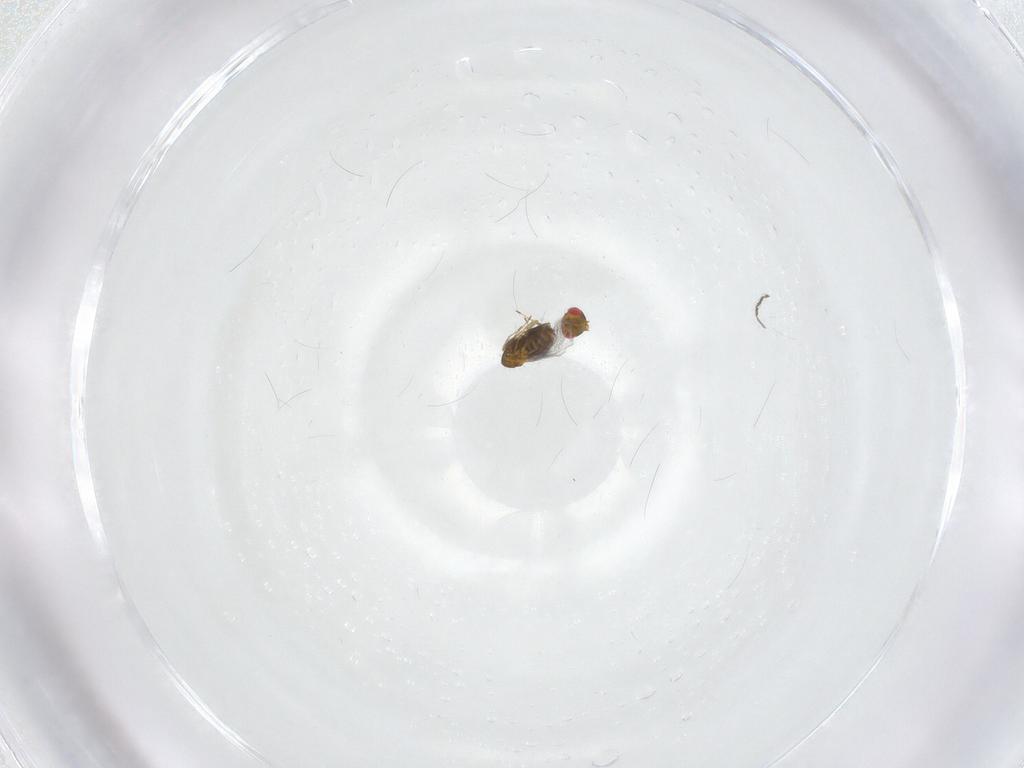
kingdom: Animalia
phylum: Arthropoda
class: Insecta
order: Hymenoptera
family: Trichogrammatidae
